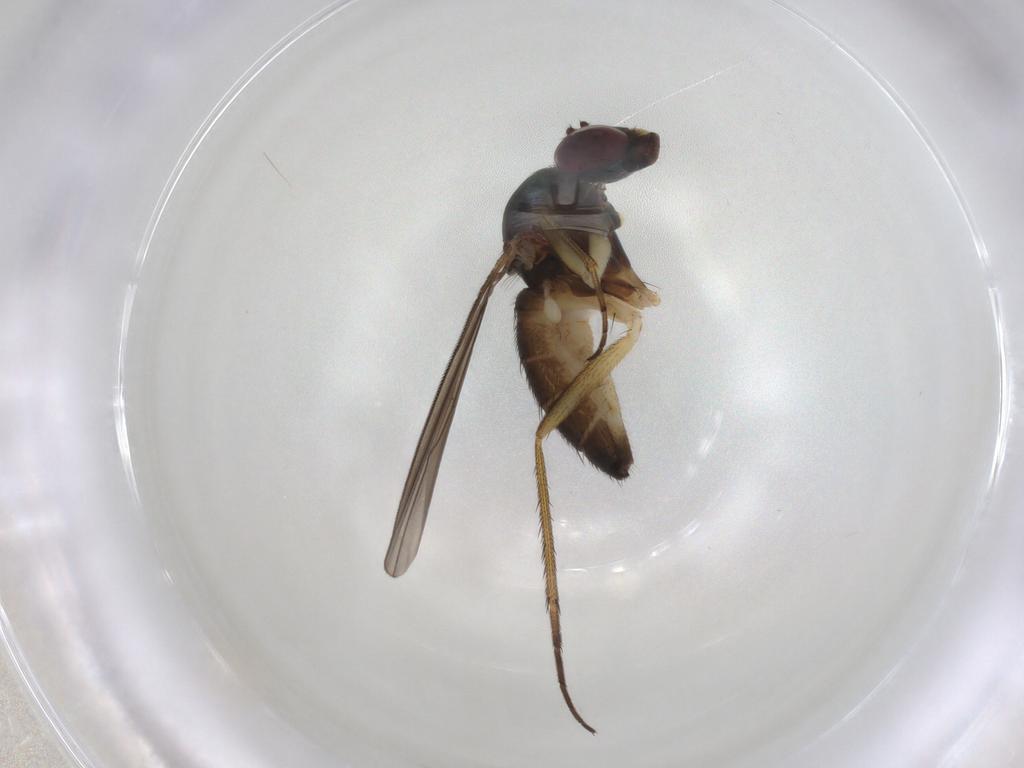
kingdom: Animalia
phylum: Arthropoda
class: Insecta
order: Diptera
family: Dolichopodidae
